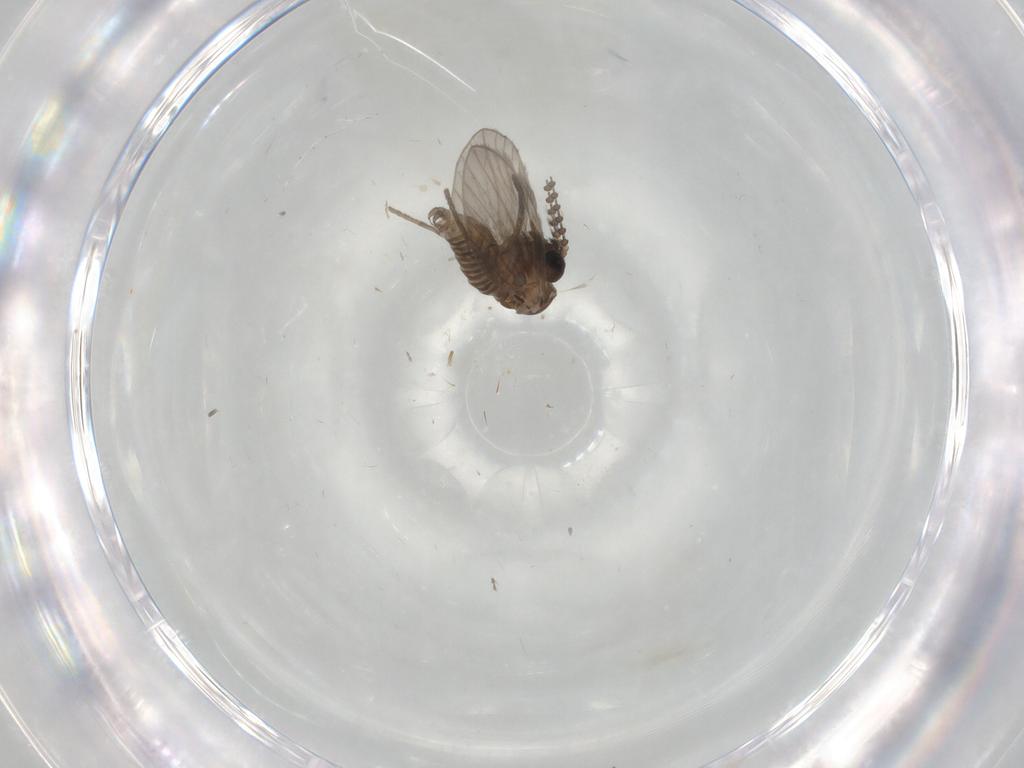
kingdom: Animalia
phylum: Arthropoda
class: Insecta
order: Diptera
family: Psychodidae
